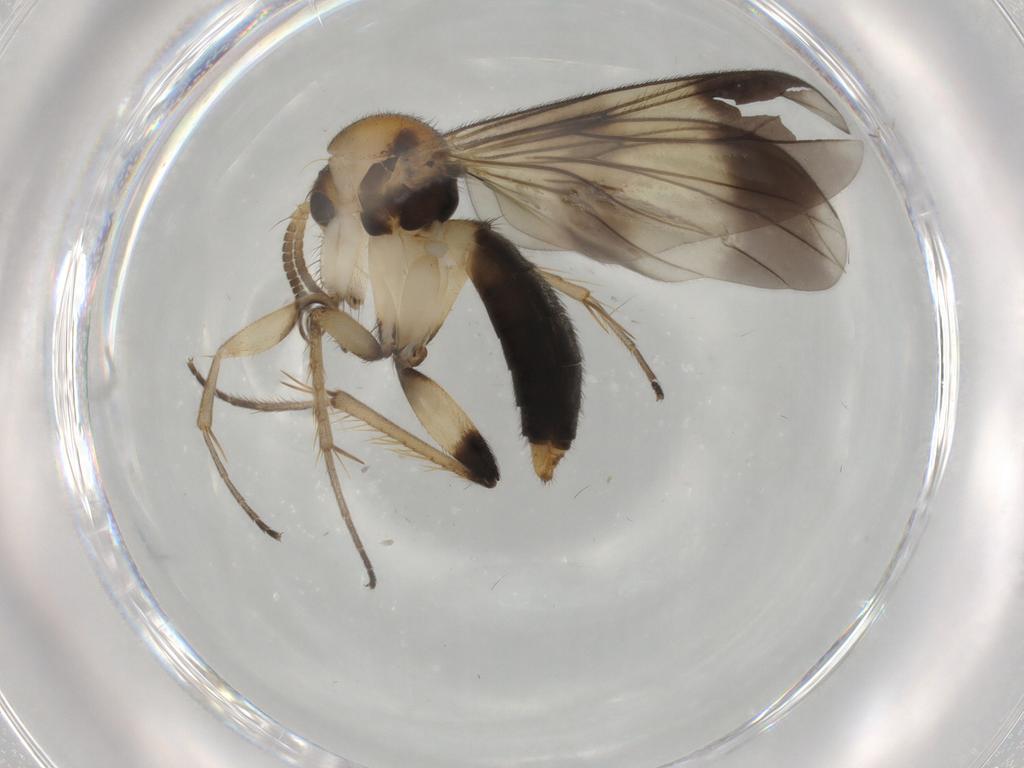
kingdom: Animalia
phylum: Arthropoda
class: Insecta
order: Diptera
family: Mycetophilidae
